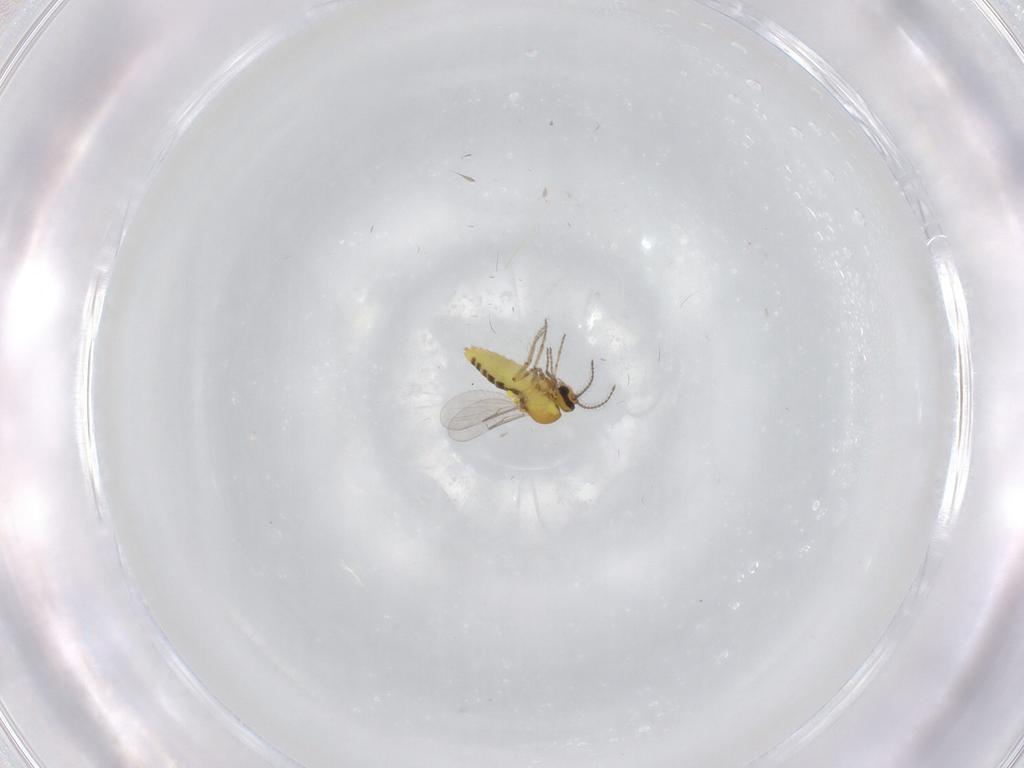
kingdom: Animalia
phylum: Arthropoda
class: Insecta
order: Diptera
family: Ceratopogonidae
